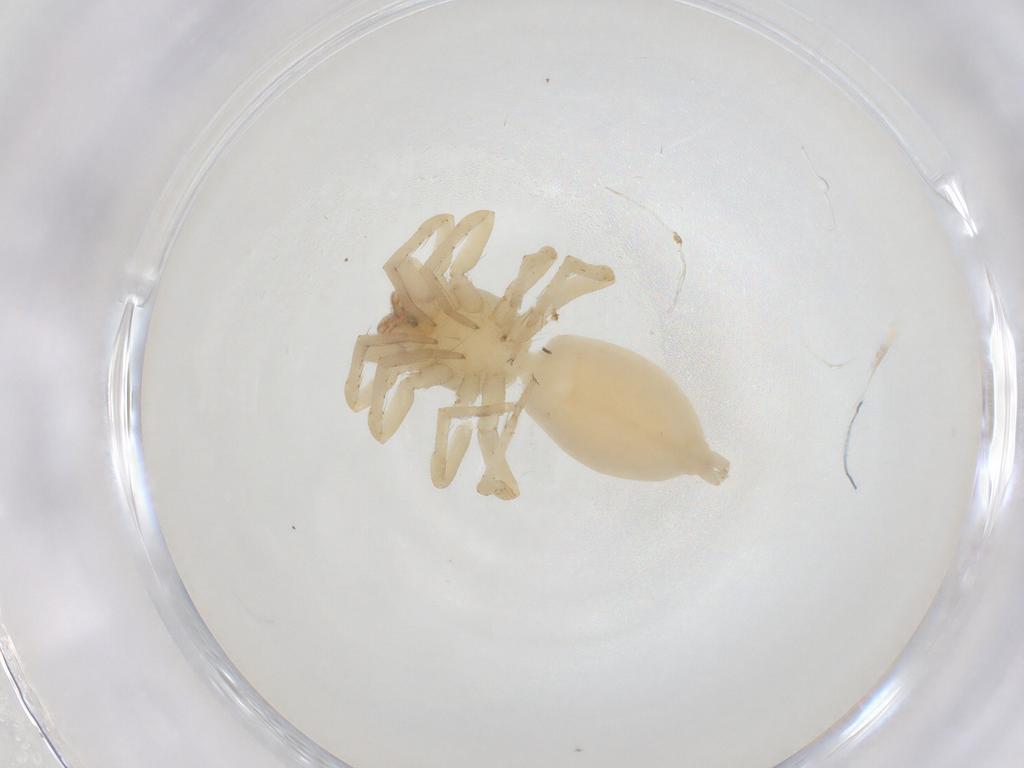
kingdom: Animalia
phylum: Arthropoda
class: Arachnida
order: Araneae
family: Clubionidae
